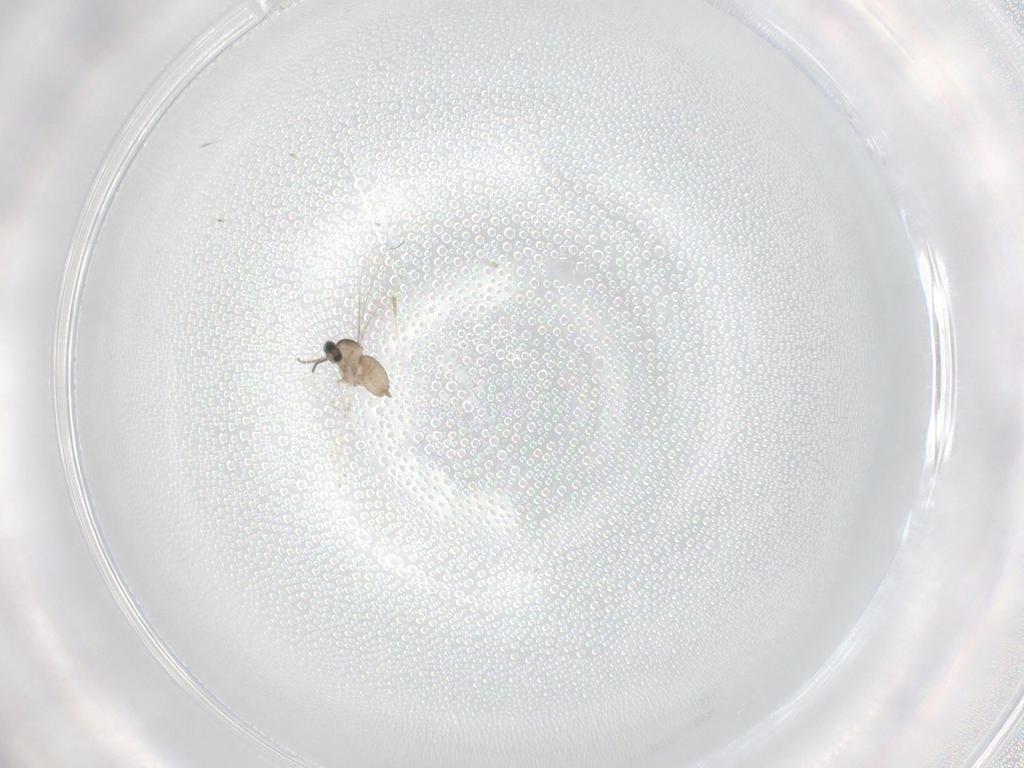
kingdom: Animalia
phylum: Arthropoda
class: Insecta
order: Diptera
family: Cecidomyiidae
